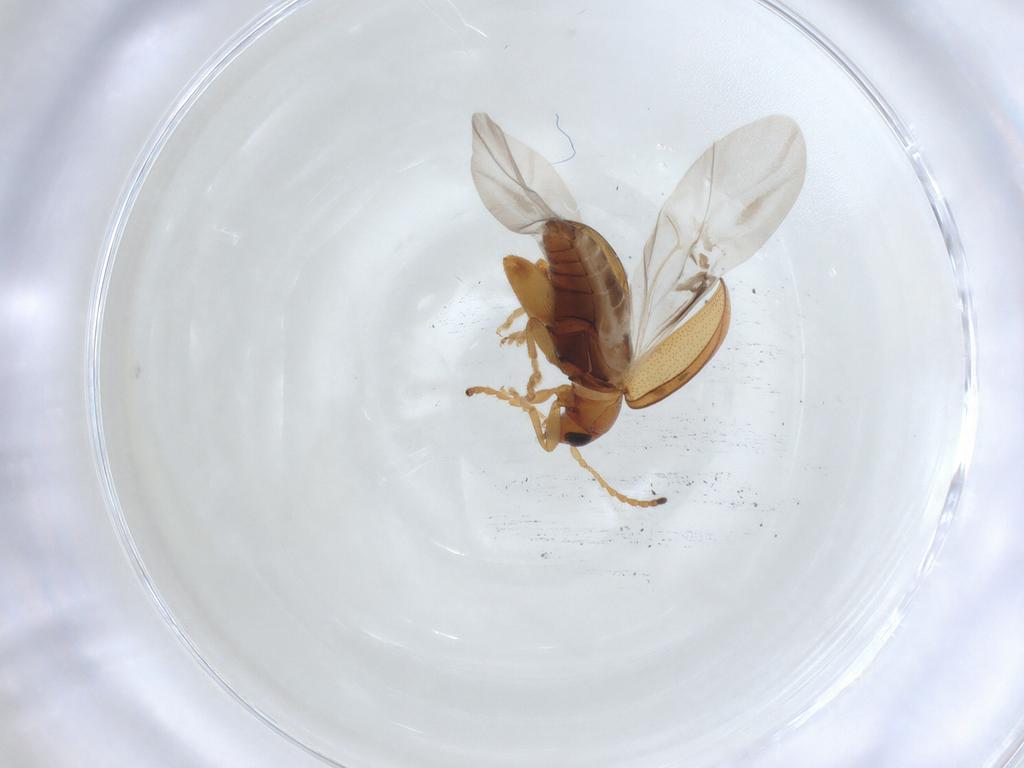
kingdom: Animalia
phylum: Arthropoda
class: Insecta
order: Coleoptera
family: Chrysomelidae
